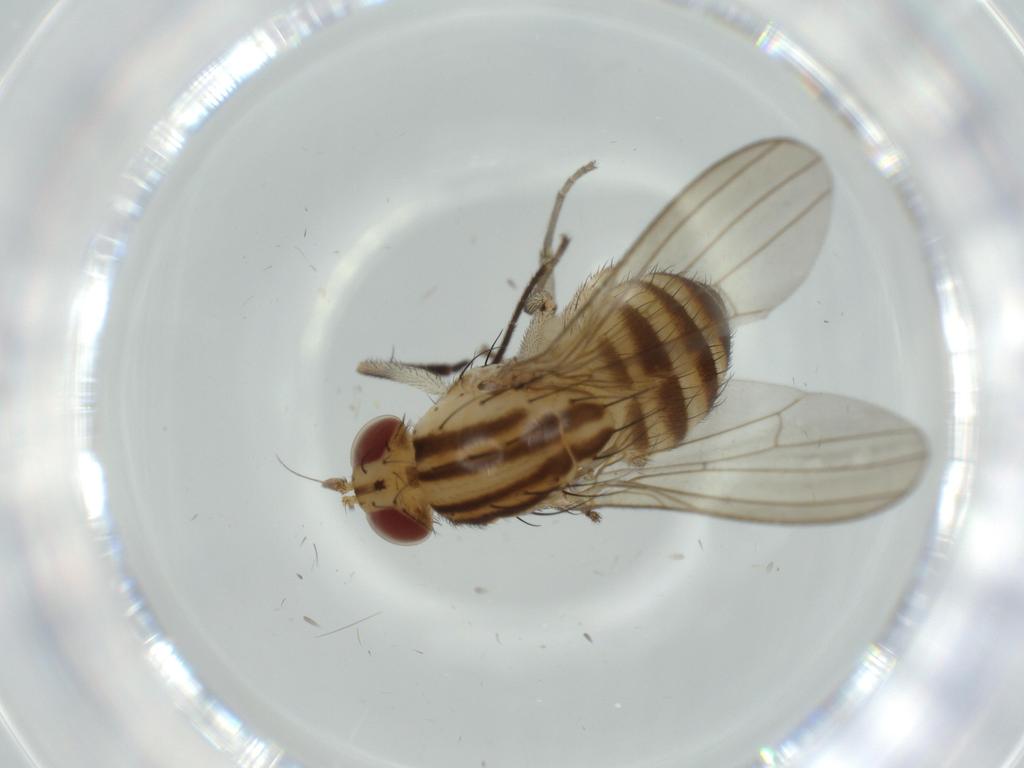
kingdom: Animalia
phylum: Arthropoda
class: Insecta
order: Diptera
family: Lauxaniidae
